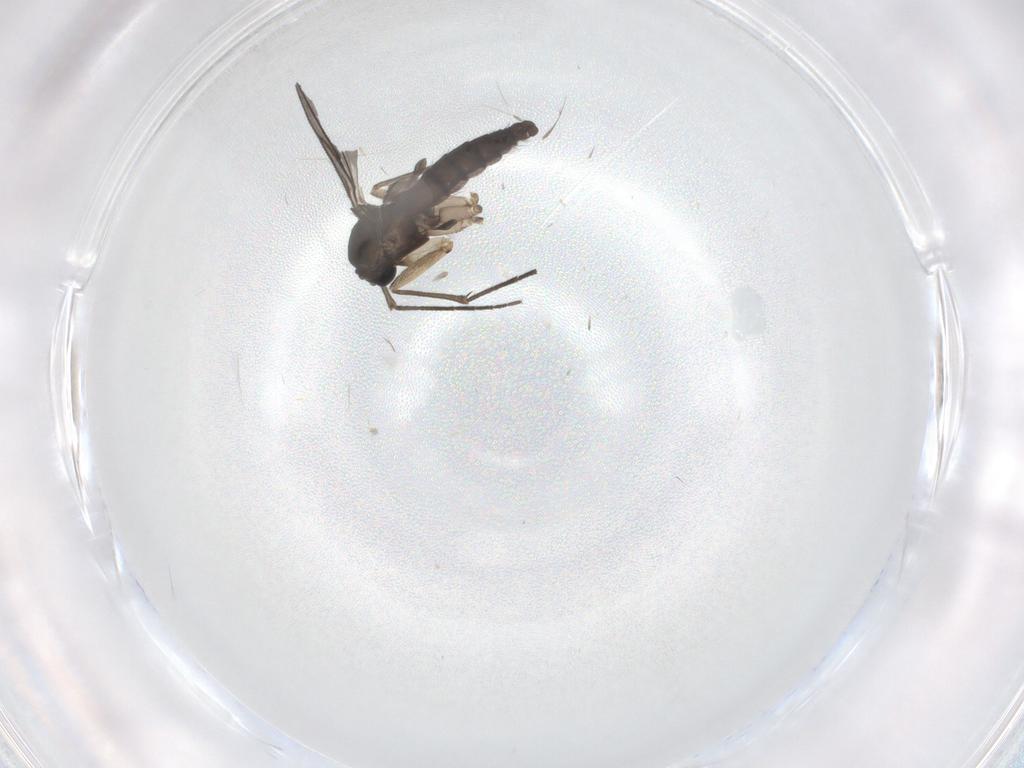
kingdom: Animalia
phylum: Arthropoda
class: Insecta
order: Diptera
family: Sciaridae
